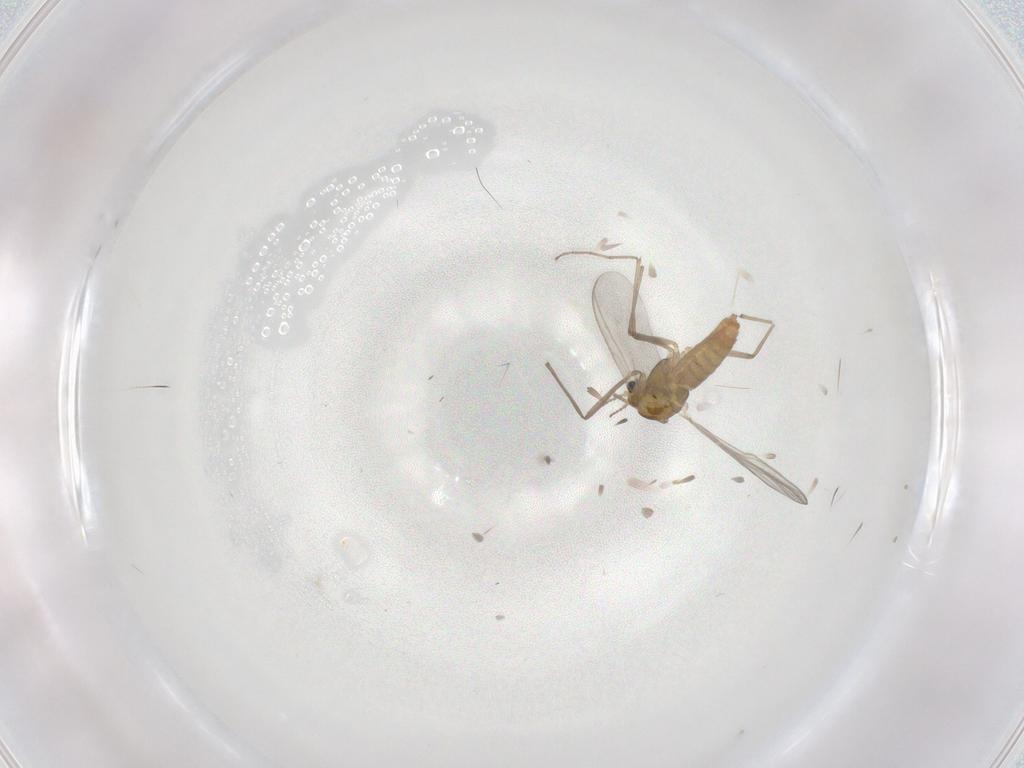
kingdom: Animalia
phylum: Arthropoda
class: Insecta
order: Diptera
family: Chironomidae
